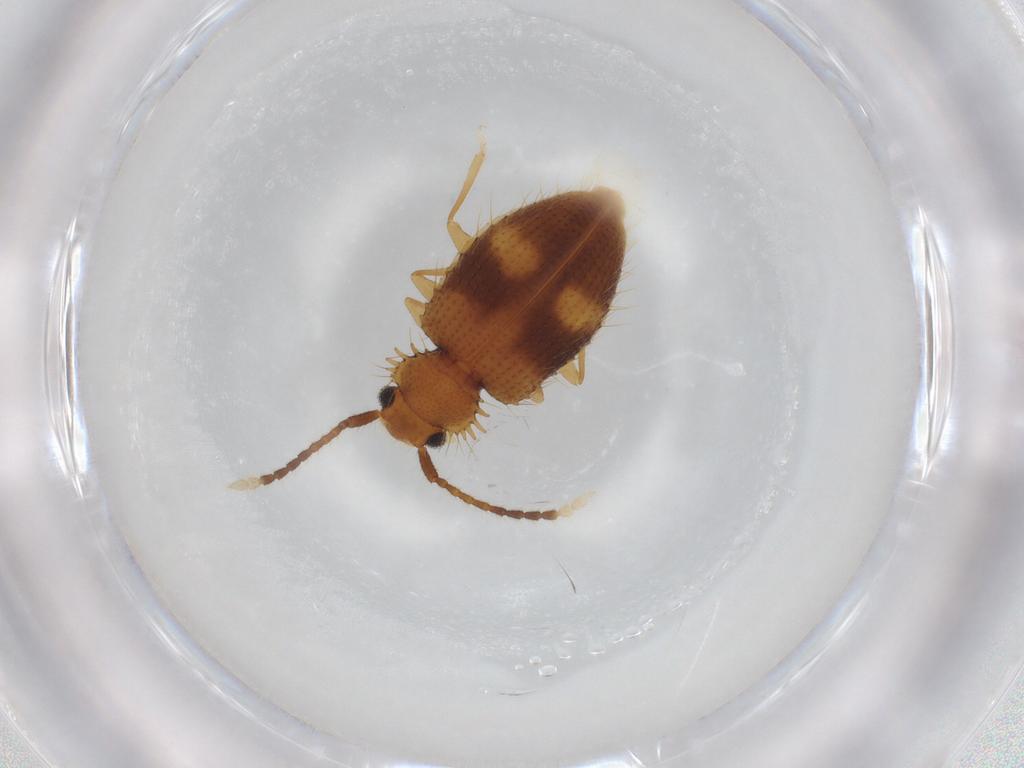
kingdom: Animalia
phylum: Arthropoda
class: Insecta
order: Coleoptera
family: Silvanidae
